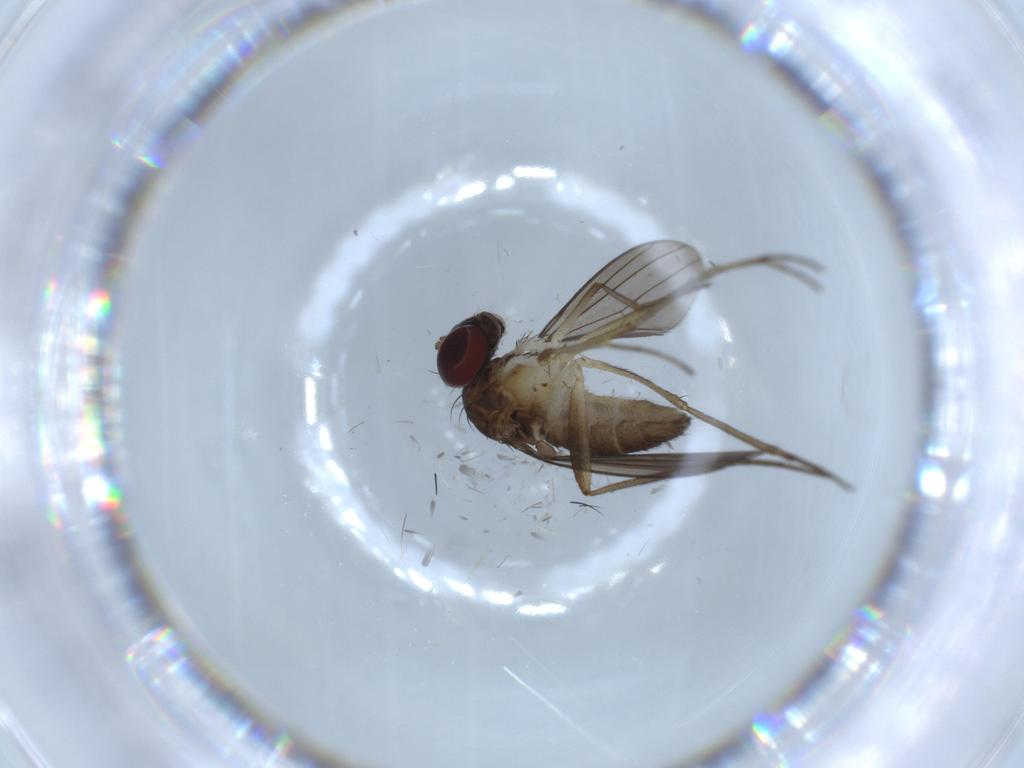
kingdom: Animalia
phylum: Arthropoda
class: Insecta
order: Diptera
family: Dolichopodidae
